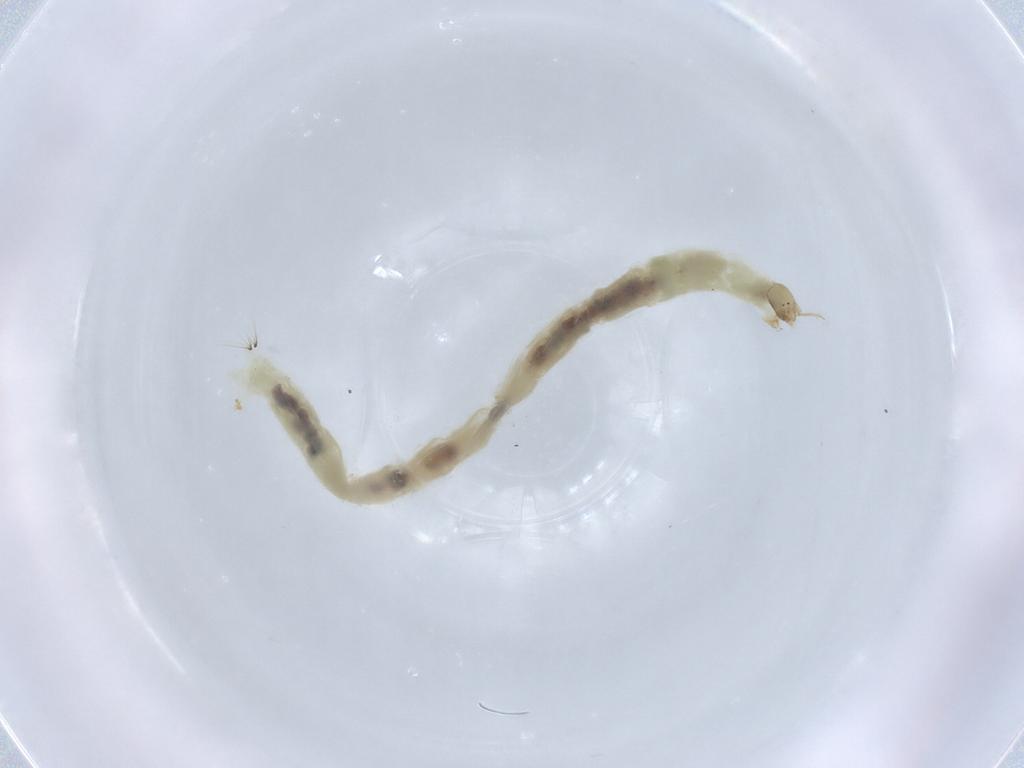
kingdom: Animalia
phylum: Arthropoda
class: Insecta
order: Diptera
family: Chironomidae
